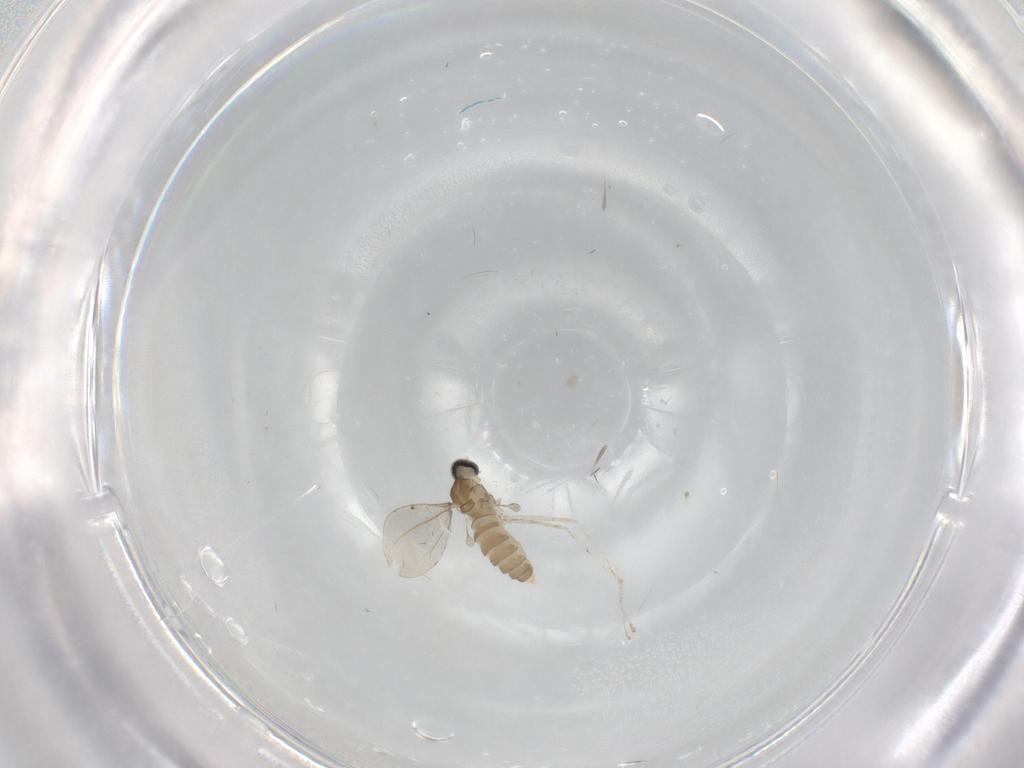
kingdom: Animalia
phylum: Arthropoda
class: Insecta
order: Diptera
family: Cecidomyiidae
